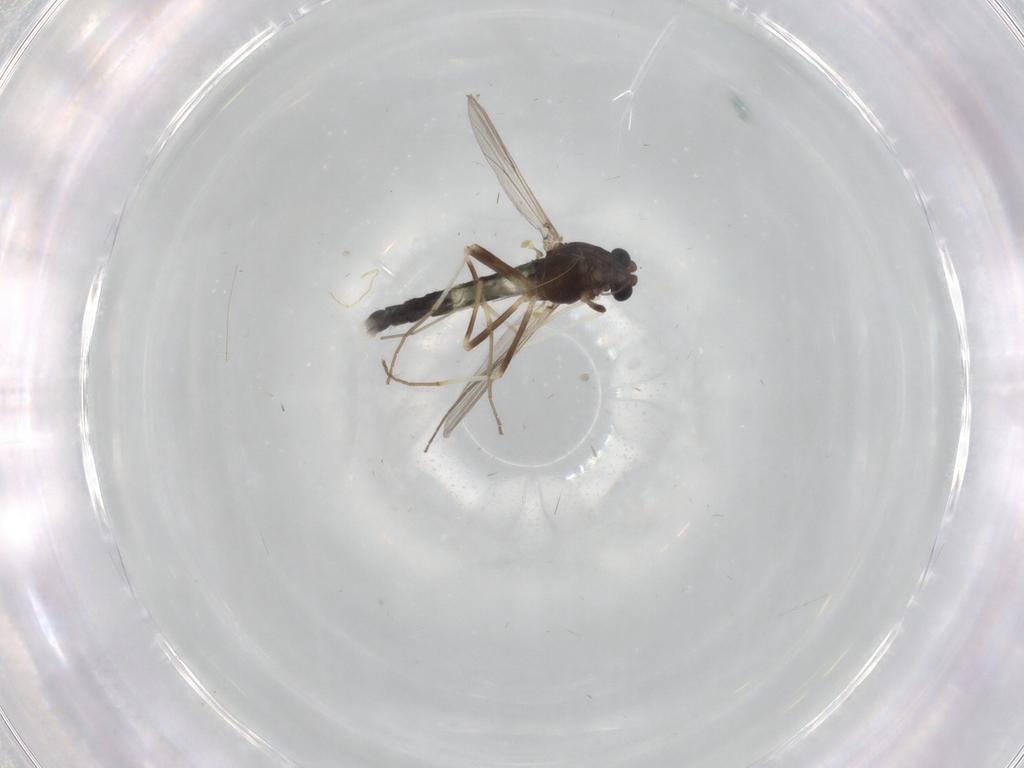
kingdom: Animalia
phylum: Arthropoda
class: Insecta
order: Diptera
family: Chironomidae
